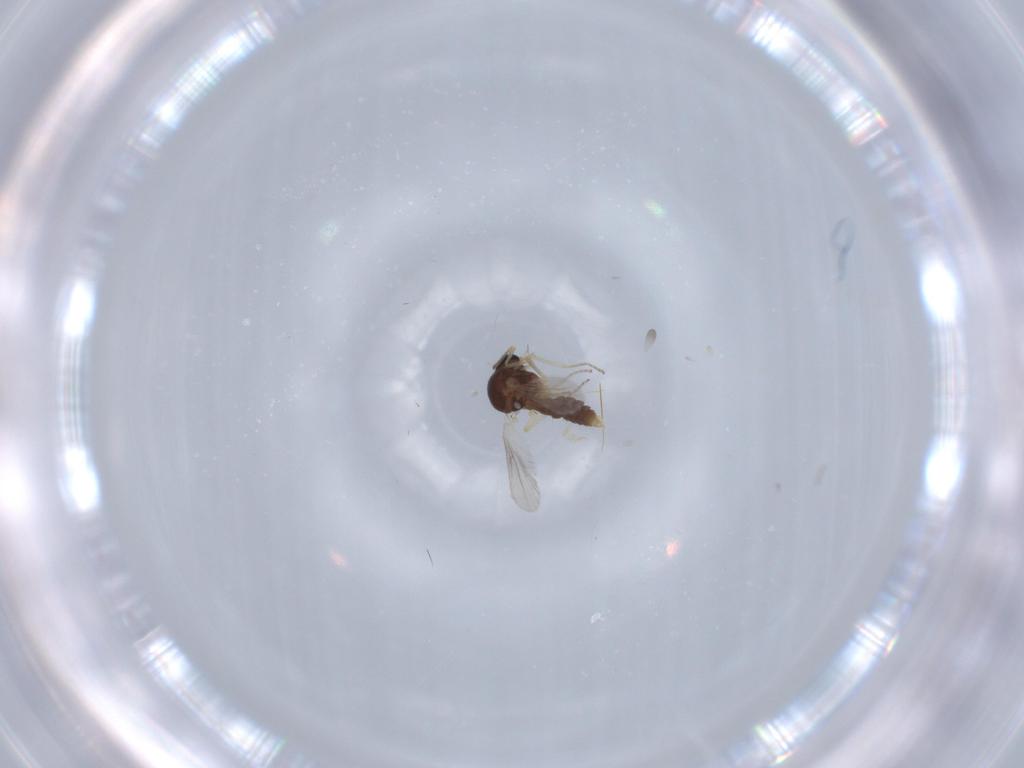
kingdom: Animalia
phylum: Arthropoda
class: Insecta
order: Diptera
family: Ceratopogonidae
